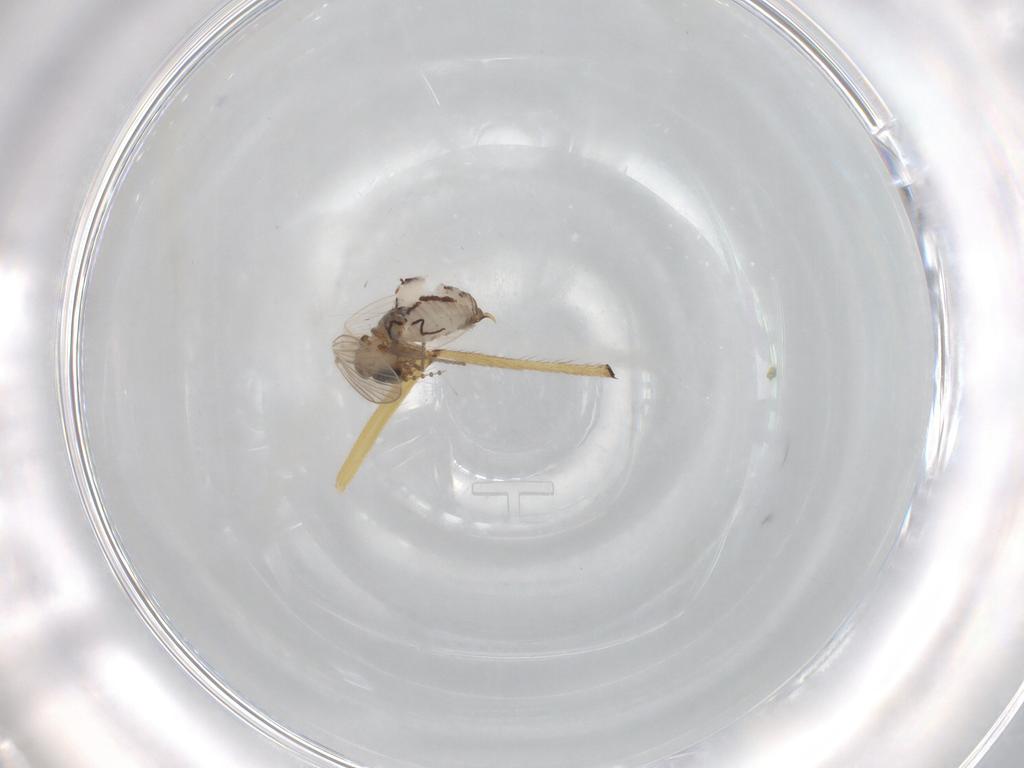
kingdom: Animalia
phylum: Arthropoda
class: Insecta
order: Diptera
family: Psychodidae
